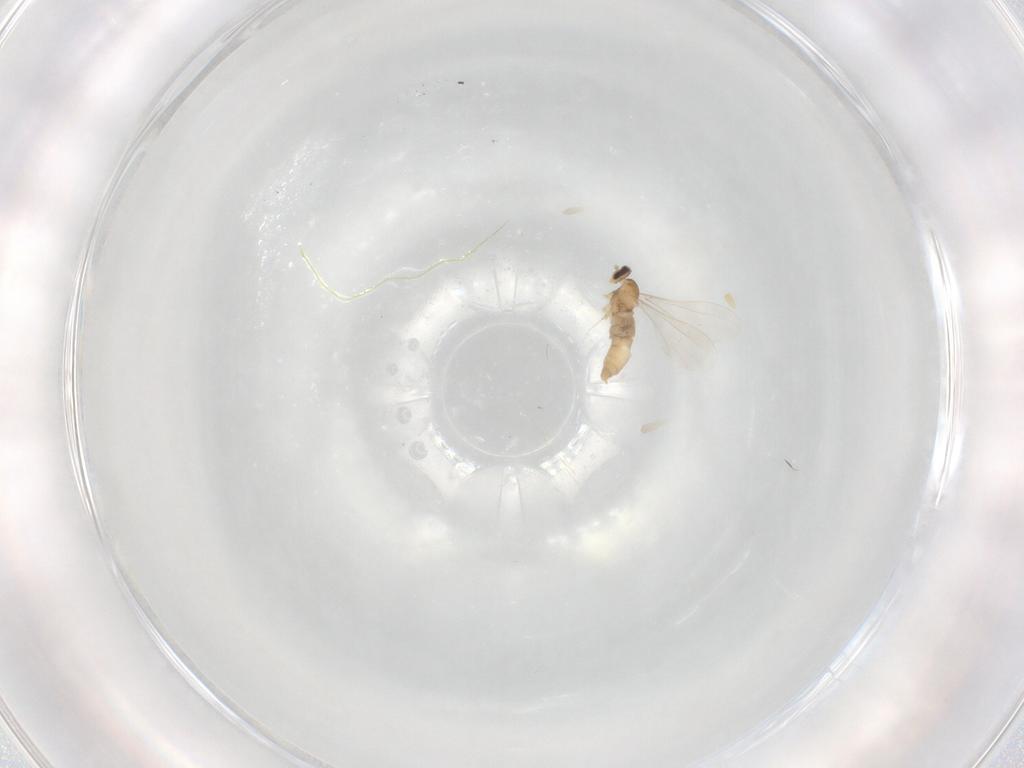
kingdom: Animalia
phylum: Arthropoda
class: Insecta
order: Diptera
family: Cecidomyiidae
